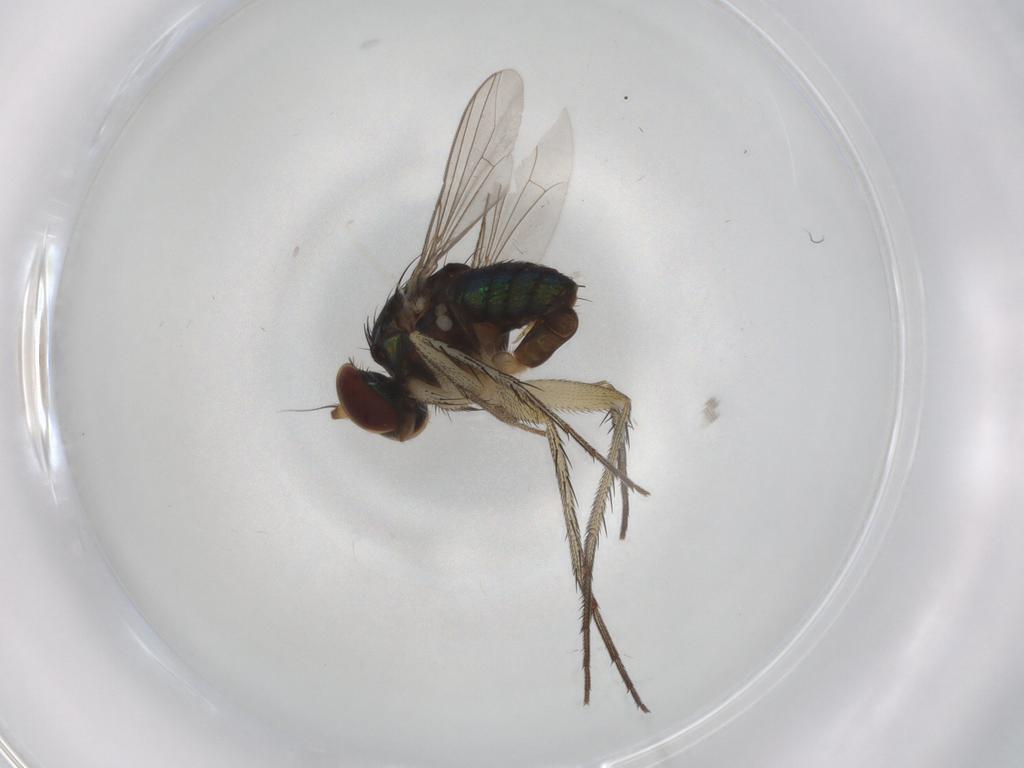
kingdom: Animalia
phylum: Arthropoda
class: Insecta
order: Diptera
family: Dolichopodidae
